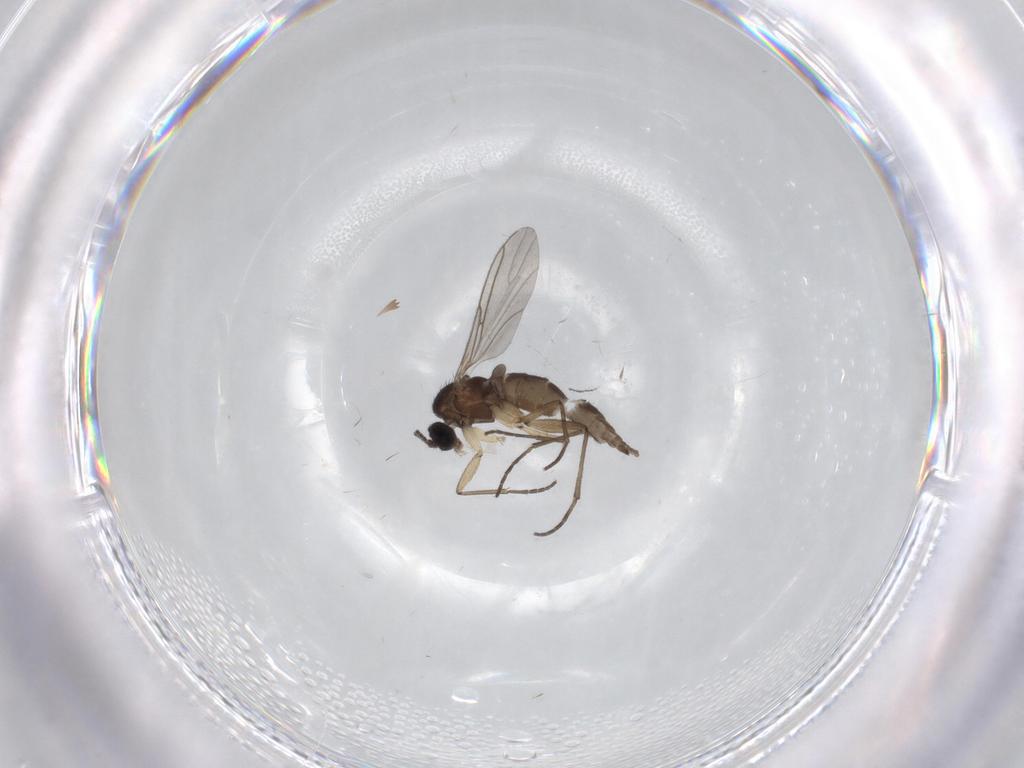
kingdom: Animalia
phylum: Arthropoda
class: Insecta
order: Diptera
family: Sciaridae
